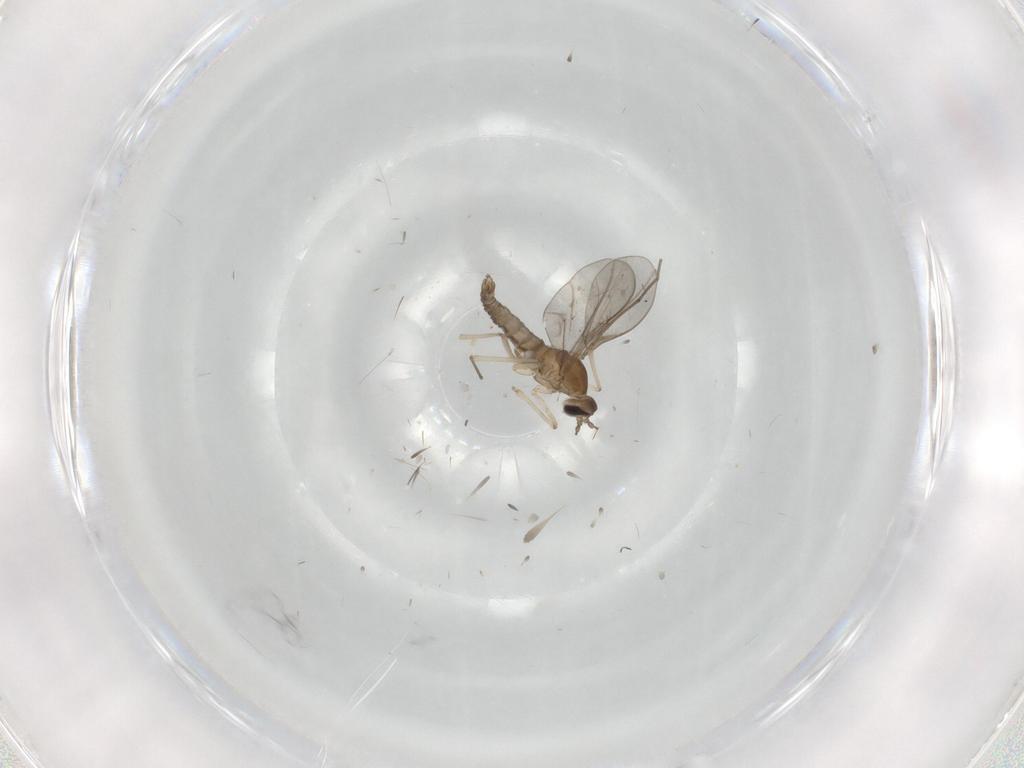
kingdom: Animalia
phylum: Arthropoda
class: Insecta
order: Diptera
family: Cecidomyiidae
